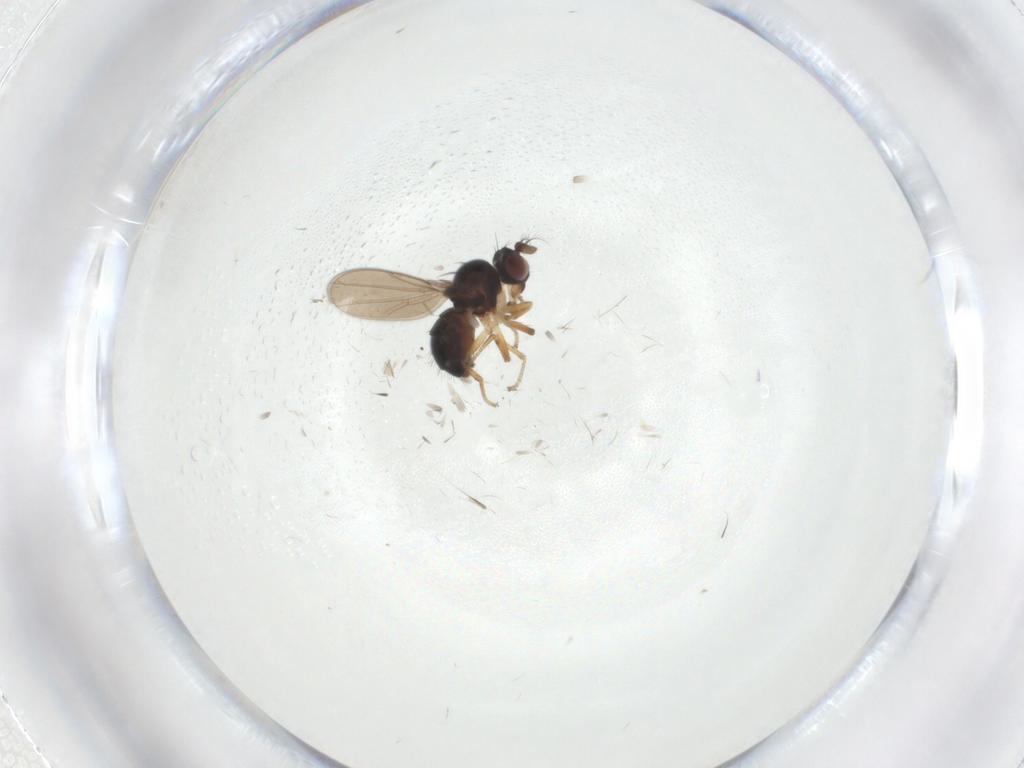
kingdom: Animalia
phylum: Arthropoda
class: Insecta
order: Diptera
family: Ephydridae
